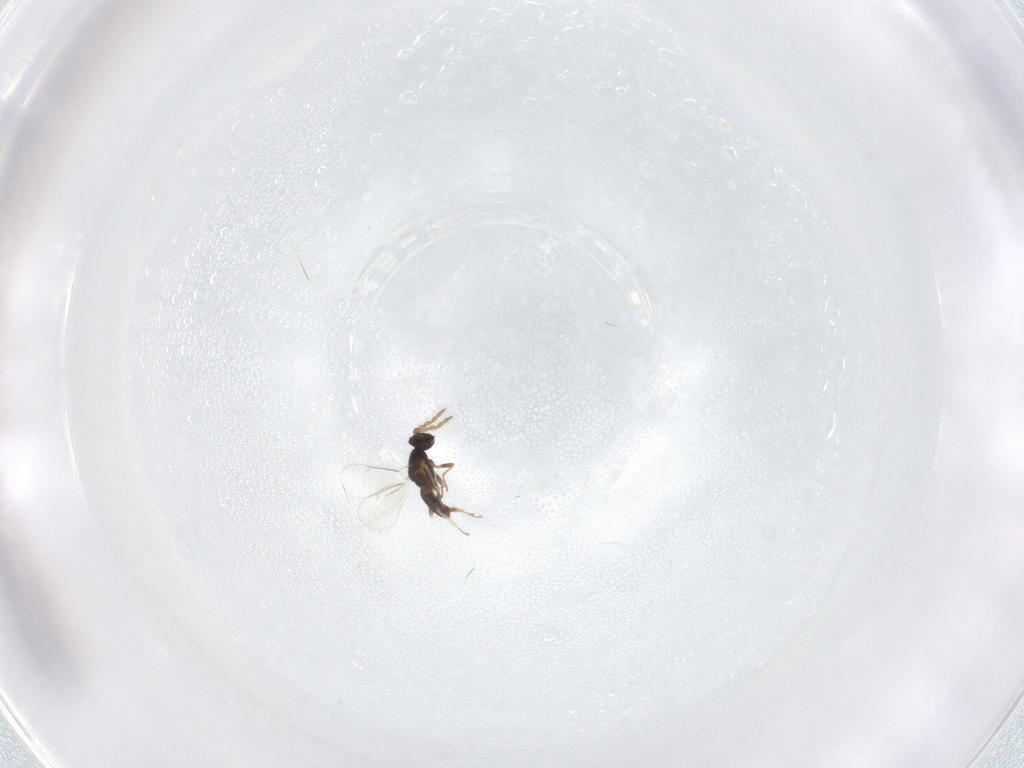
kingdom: Animalia
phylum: Arthropoda
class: Insecta
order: Hymenoptera
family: Eulophidae
